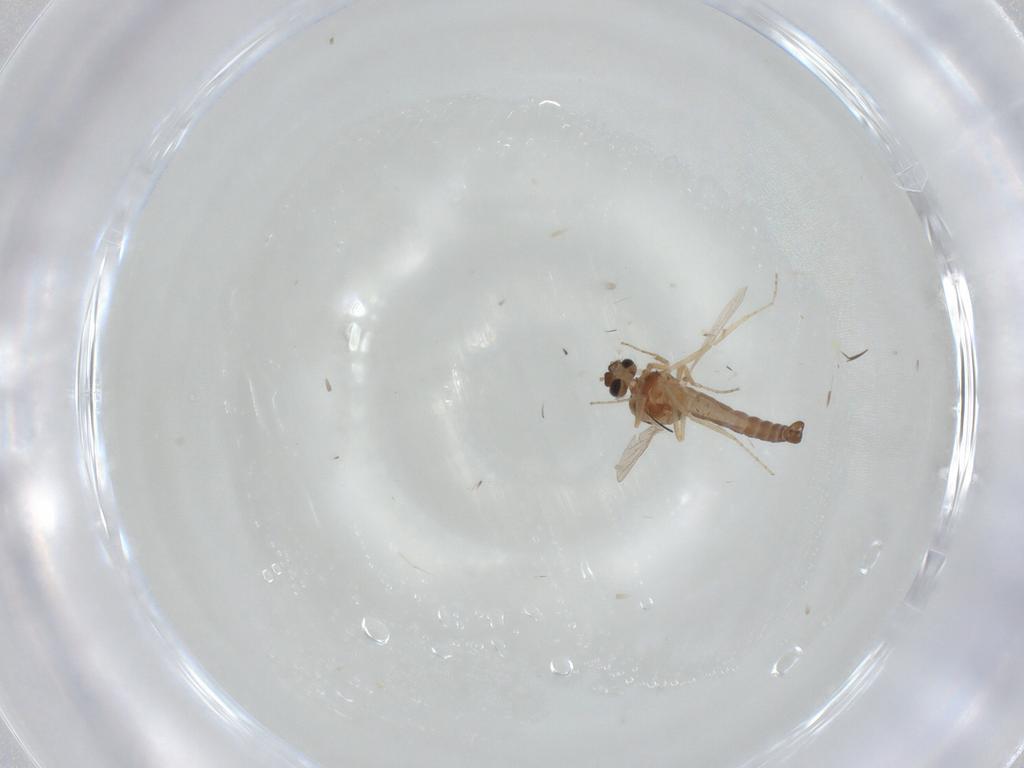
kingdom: Animalia
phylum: Arthropoda
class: Insecta
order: Diptera
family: Ceratopogonidae
